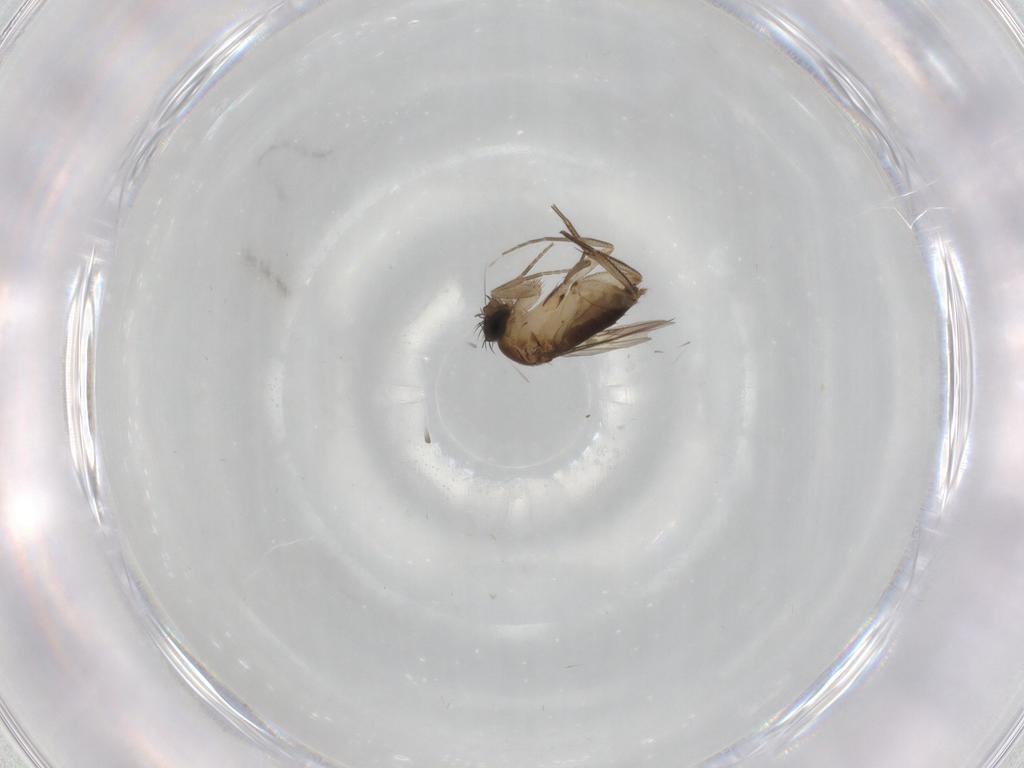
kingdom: Animalia
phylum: Arthropoda
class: Insecta
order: Diptera
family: Phoridae
